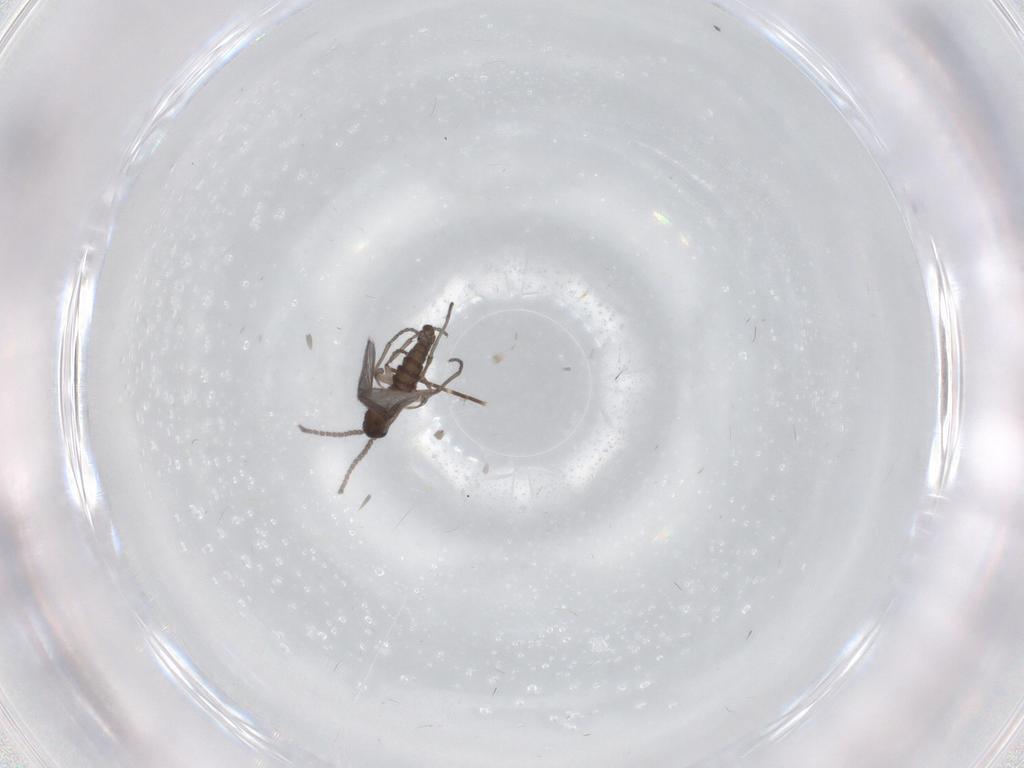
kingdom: Animalia
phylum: Arthropoda
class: Insecta
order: Diptera
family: Sciaridae
